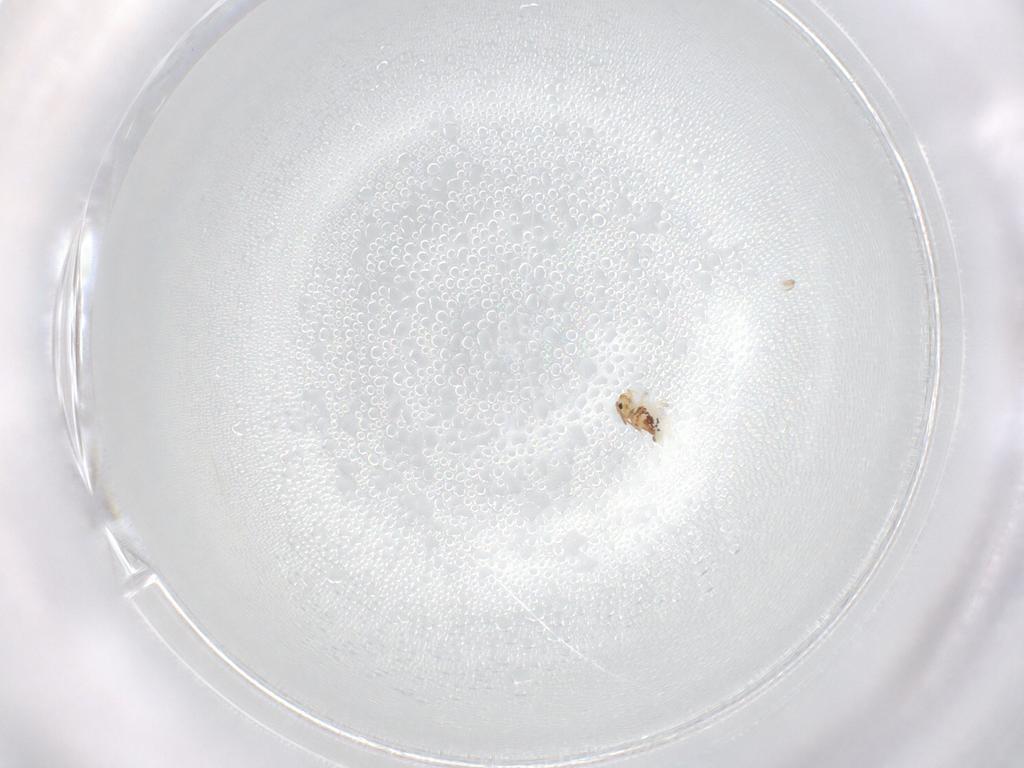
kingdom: Animalia
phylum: Arthropoda
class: Collembola
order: Symphypleona
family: Bourletiellidae
